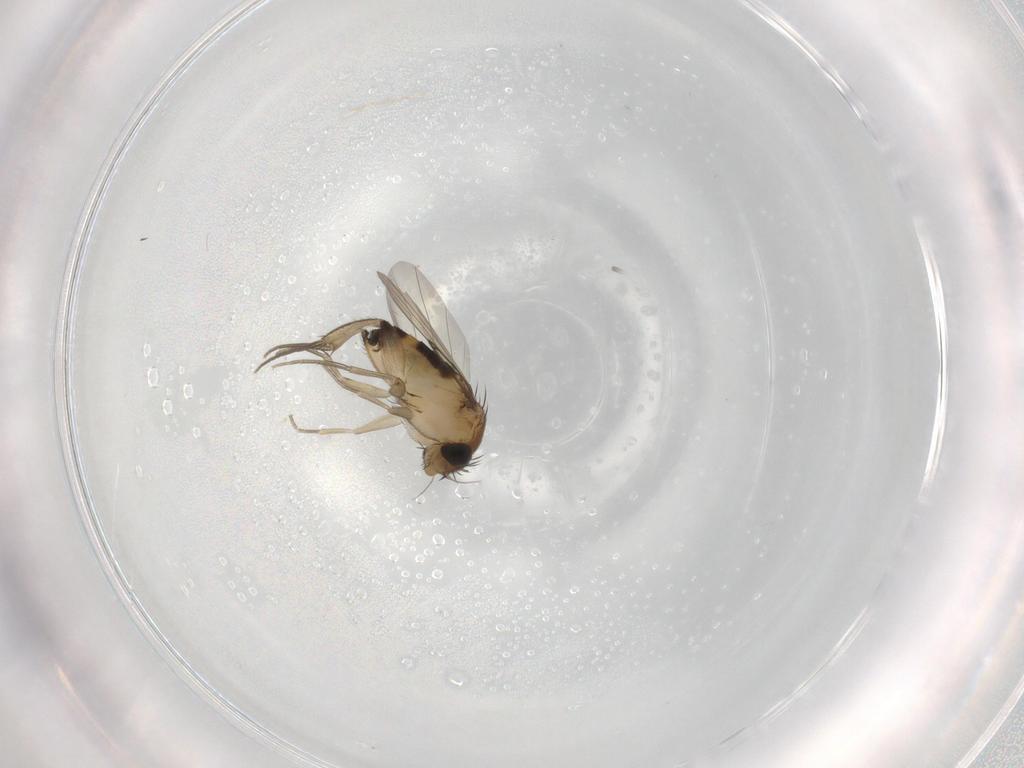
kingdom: Animalia
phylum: Arthropoda
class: Insecta
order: Diptera
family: Phoridae
